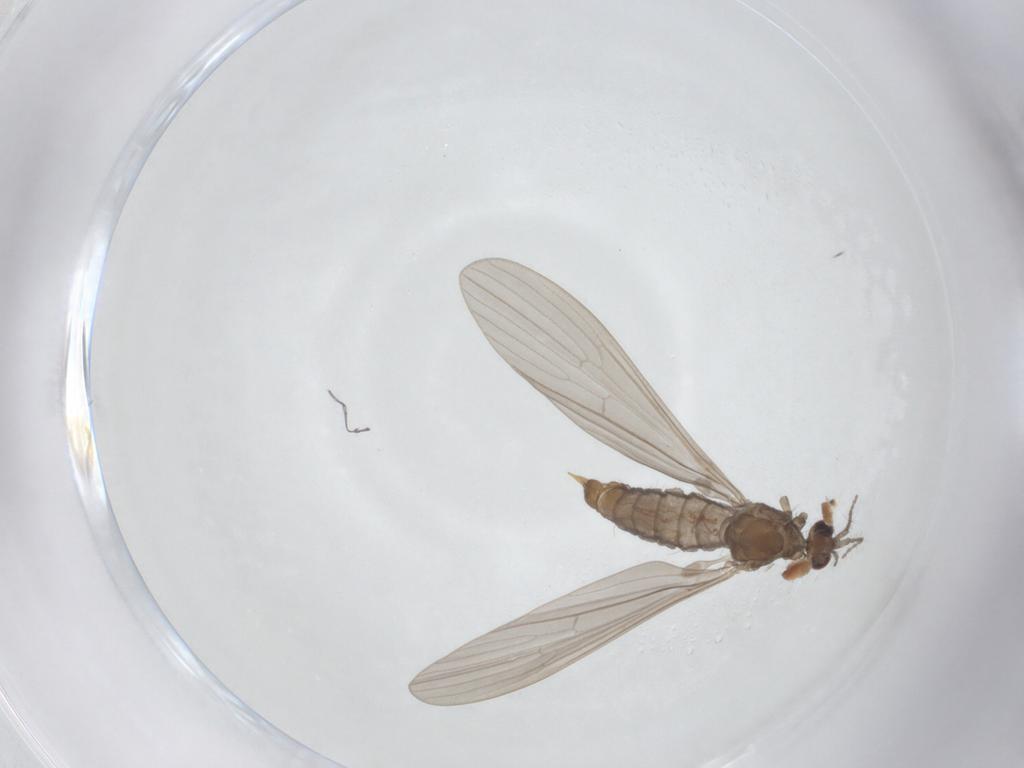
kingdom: Animalia
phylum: Arthropoda
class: Insecta
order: Diptera
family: Limoniidae
